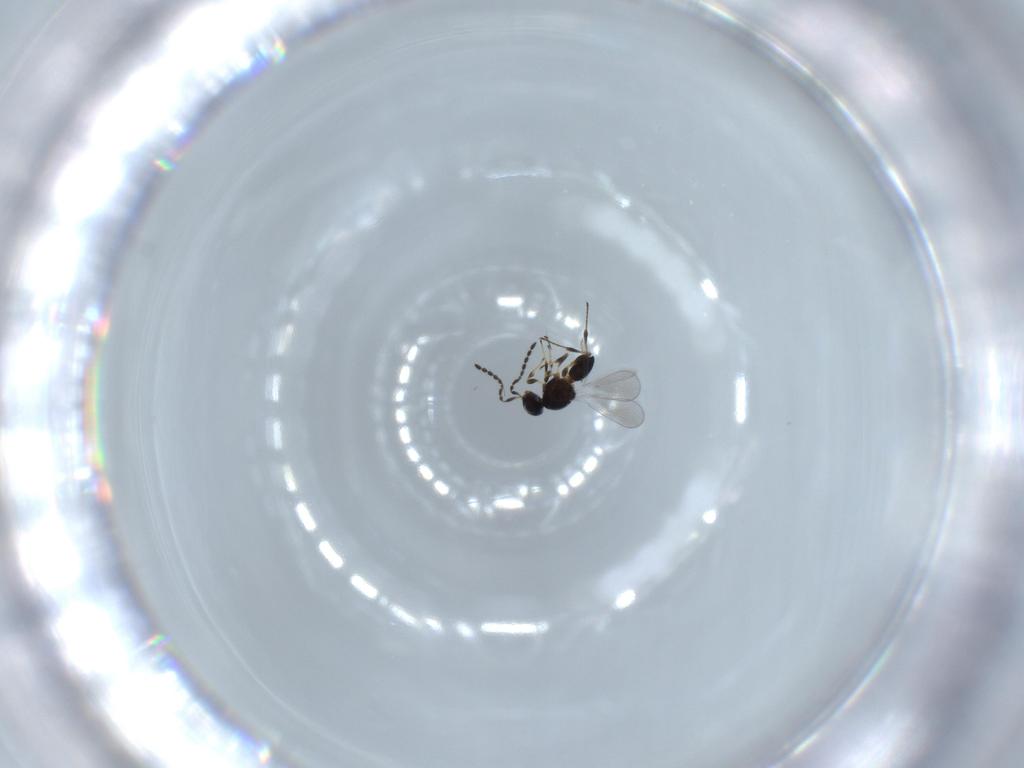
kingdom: Animalia
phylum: Arthropoda
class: Insecta
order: Hymenoptera
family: Platygastridae
